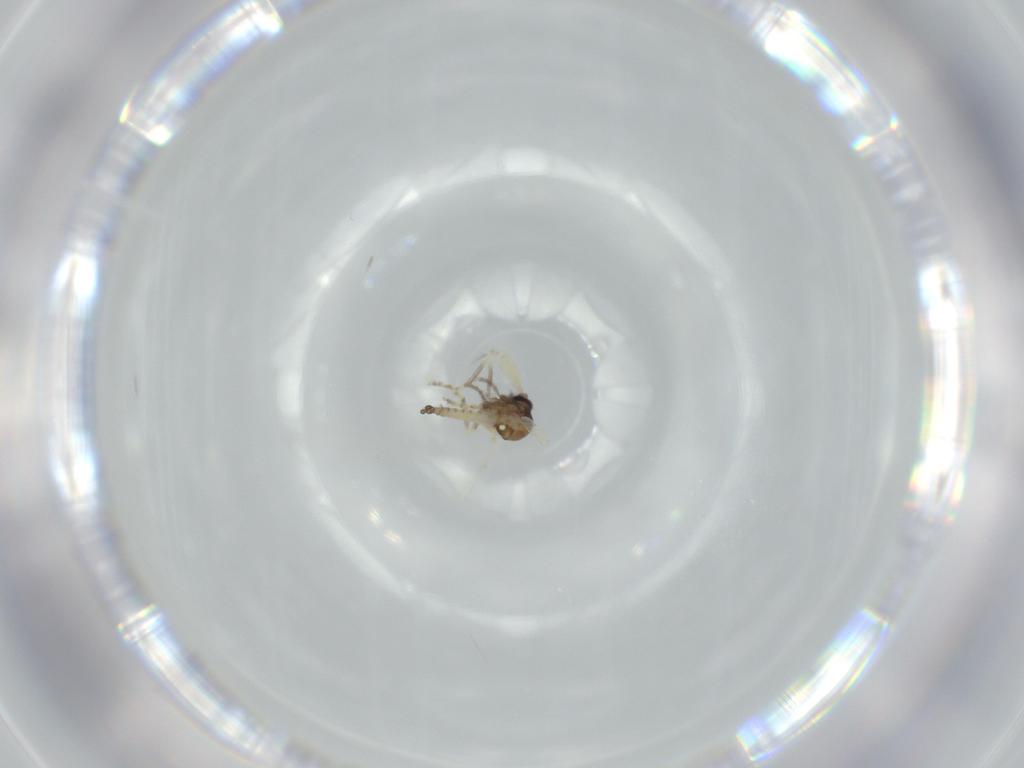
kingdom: Animalia
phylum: Arthropoda
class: Insecta
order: Diptera
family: Ceratopogonidae
